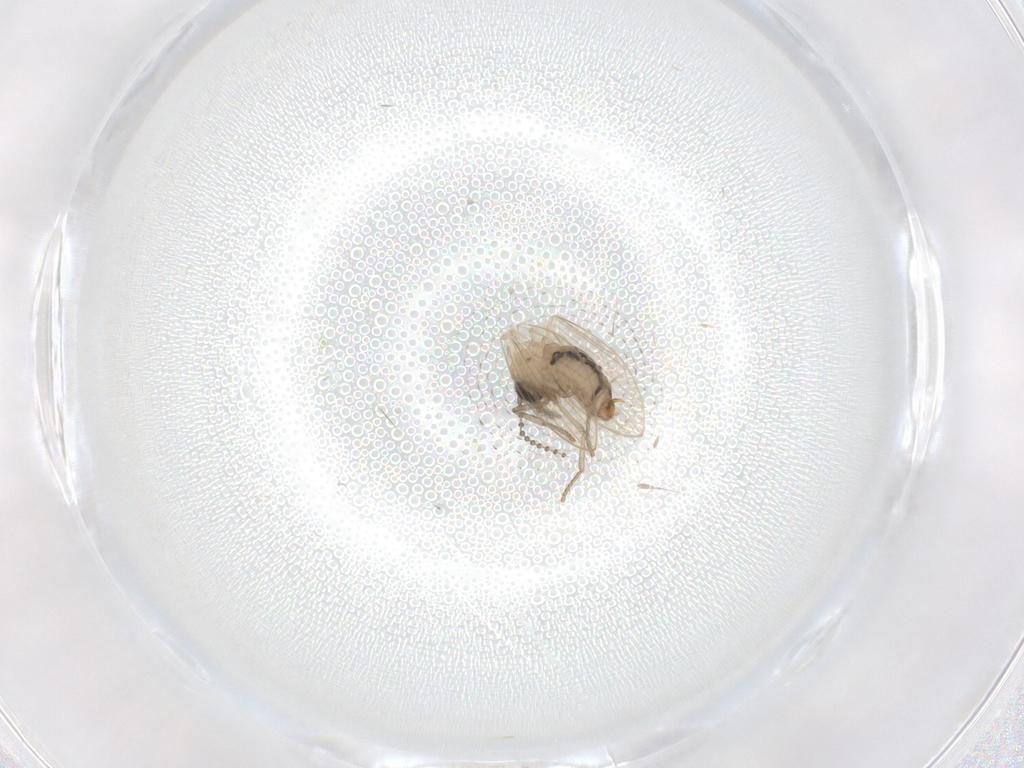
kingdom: Animalia
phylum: Arthropoda
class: Insecta
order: Diptera
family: Psychodidae
